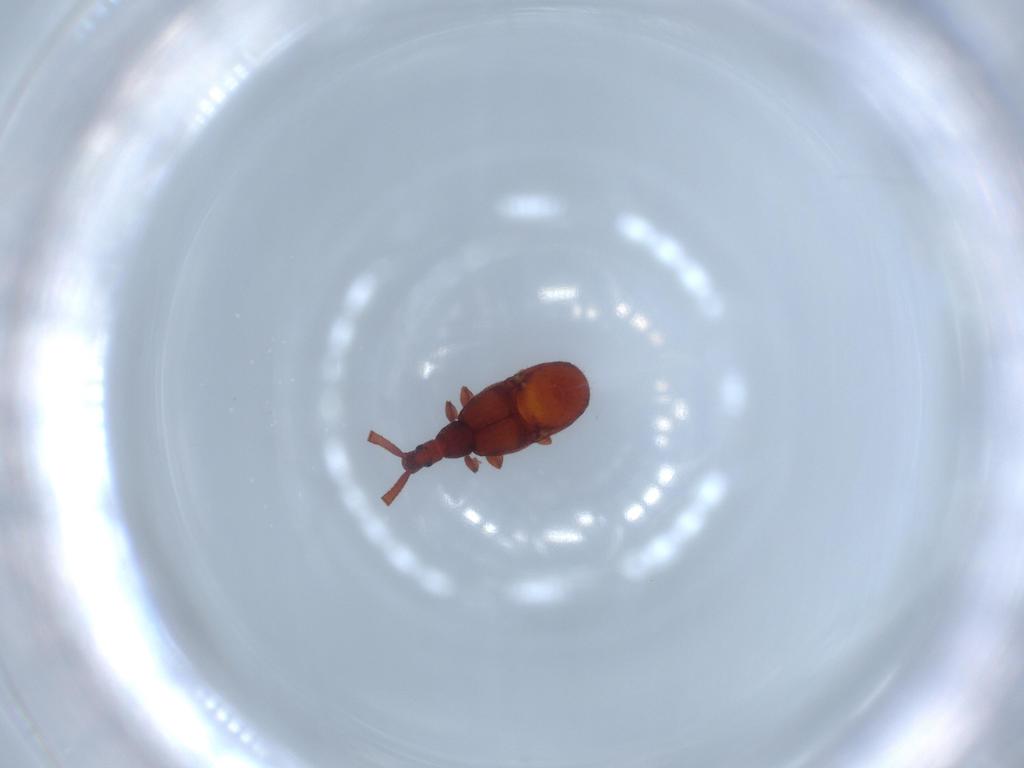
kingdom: Animalia
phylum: Arthropoda
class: Insecta
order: Coleoptera
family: Staphylinidae
